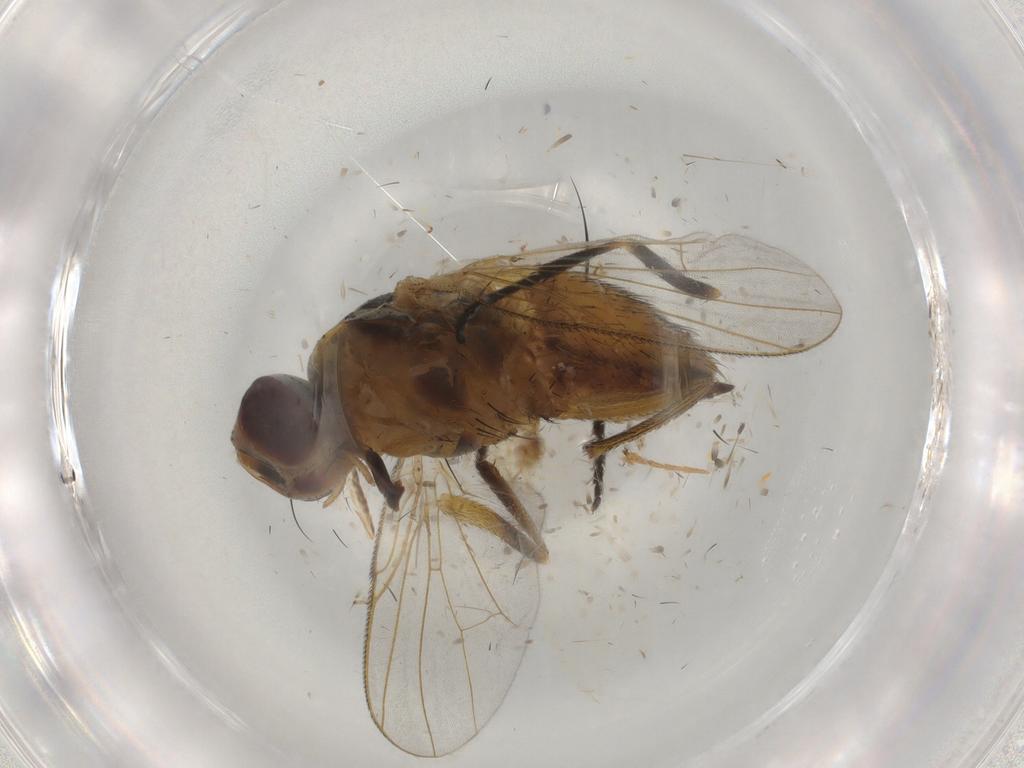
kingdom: Animalia
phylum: Arthropoda
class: Insecta
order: Diptera
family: Muscidae
